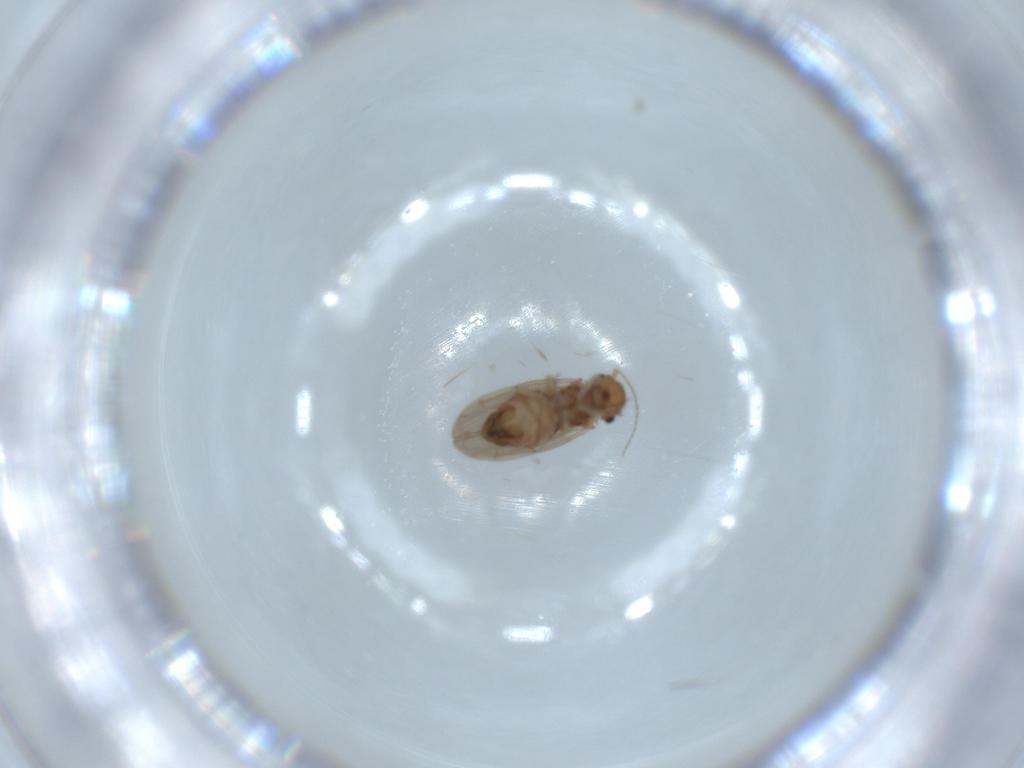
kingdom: Animalia
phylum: Arthropoda
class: Insecta
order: Psocodea
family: Ectopsocidae
